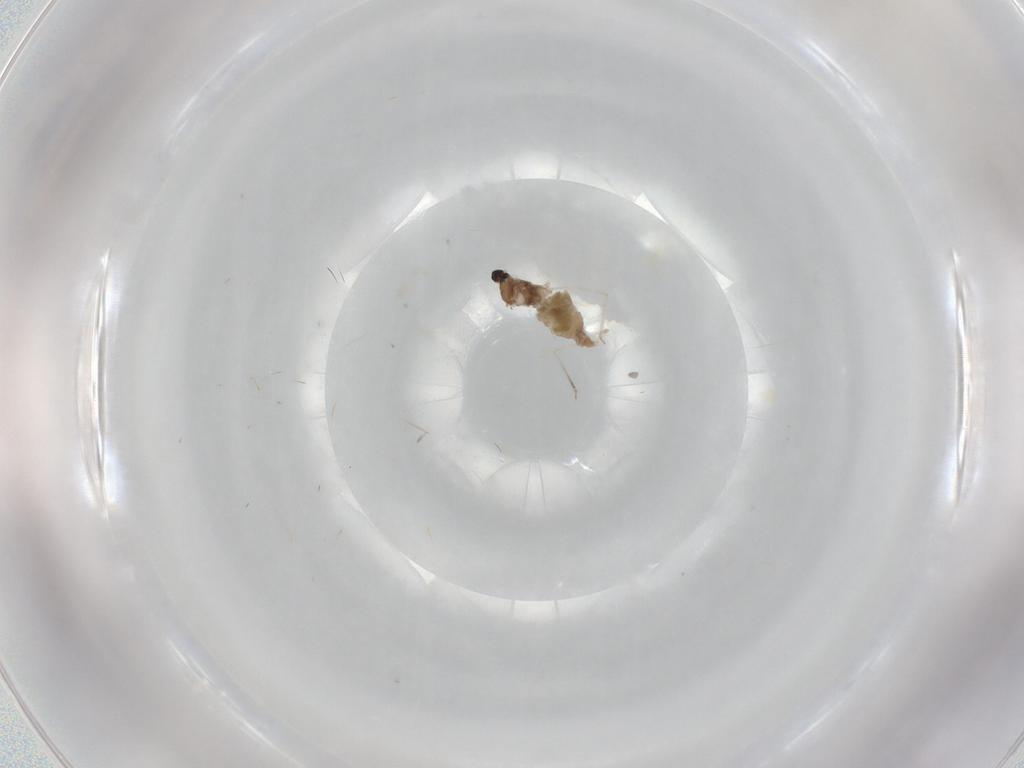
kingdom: Animalia
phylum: Arthropoda
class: Insecta
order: Diptera
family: Cecidomyiidae
